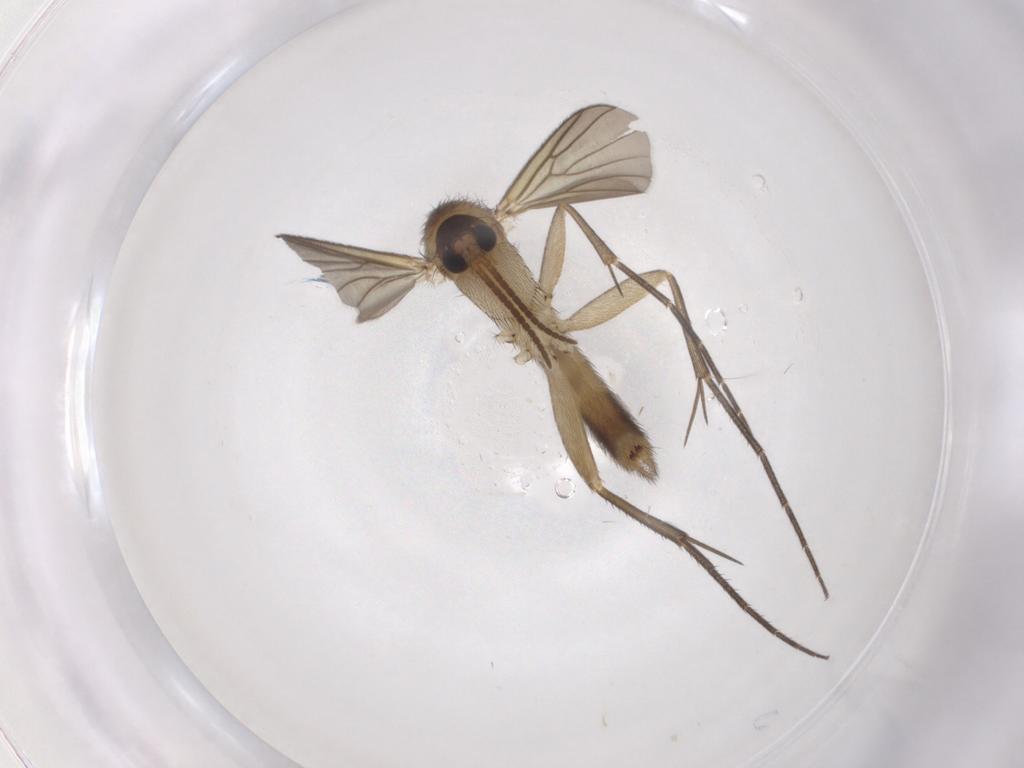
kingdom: Animalia
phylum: Arthropoda
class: Insecta
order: Diptera
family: Mycetophilidae
